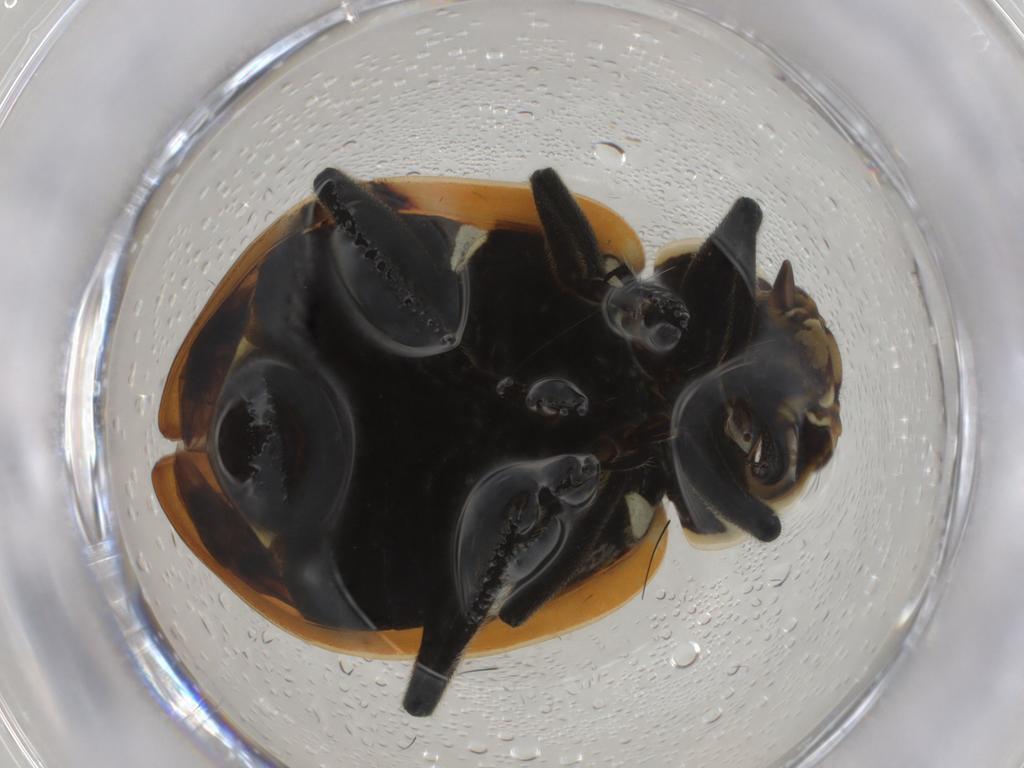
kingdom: Animalia
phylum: Arthropoda
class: Insecta
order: Coleoptera
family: Coccinellidae
